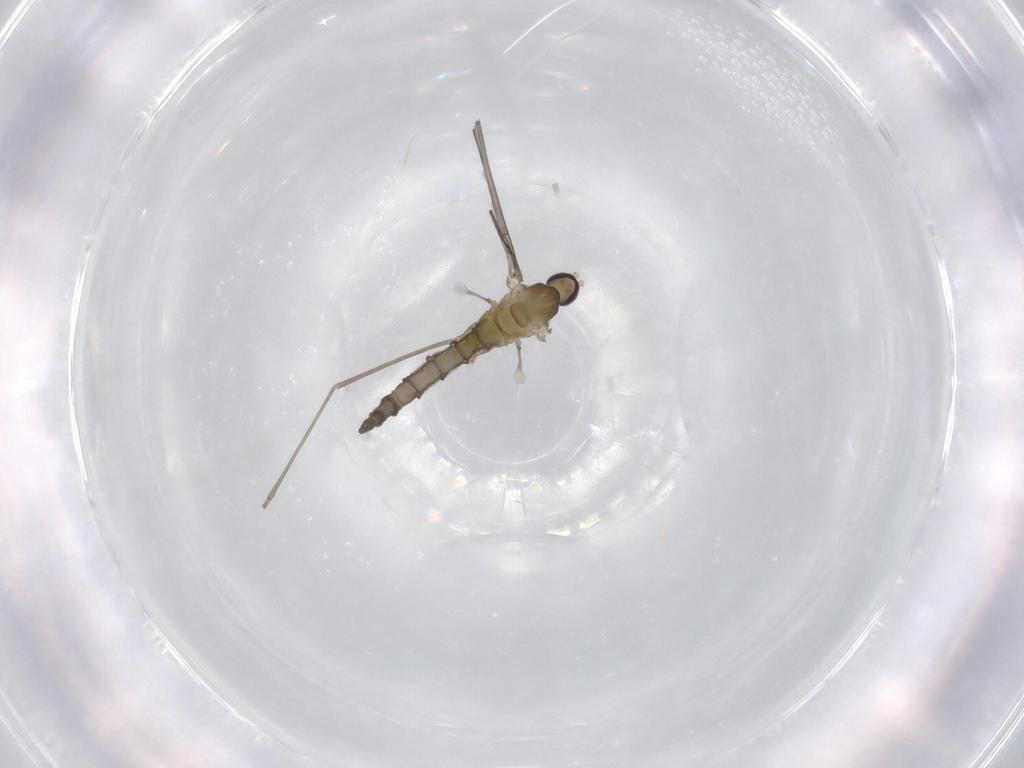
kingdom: Animalia
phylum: Arthropoda
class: Insecta
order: Diptera
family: Cecidomyiidae
